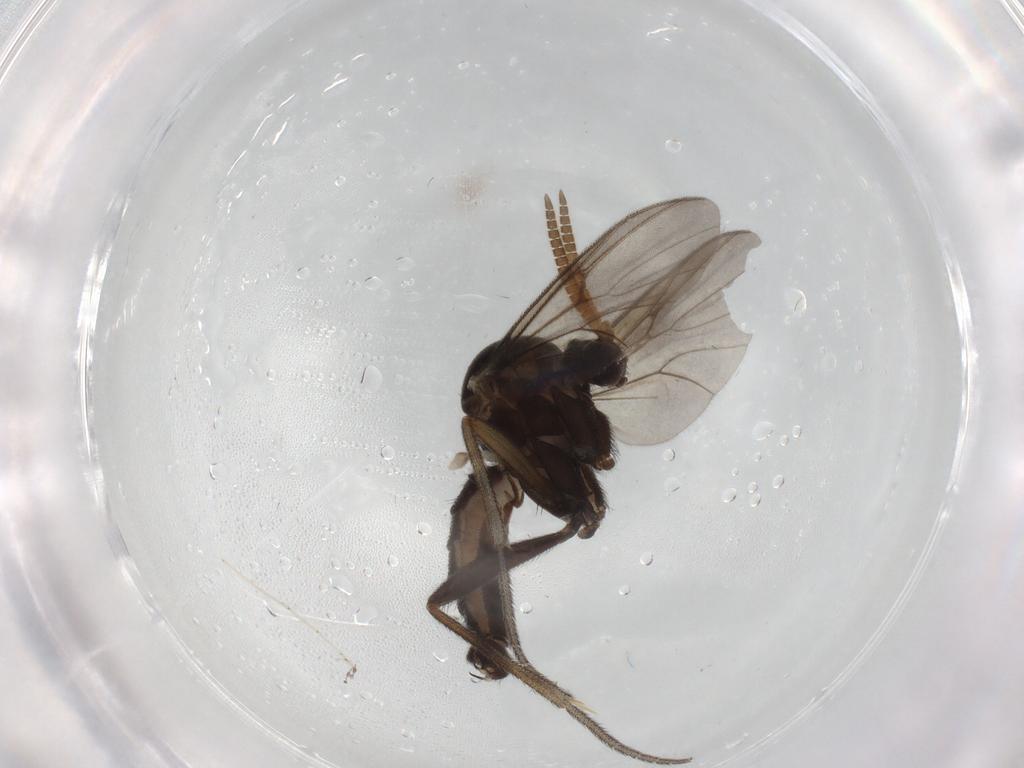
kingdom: Animalia
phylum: Arthropoda
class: Insecta
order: Diptera
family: Mycetophilidae
